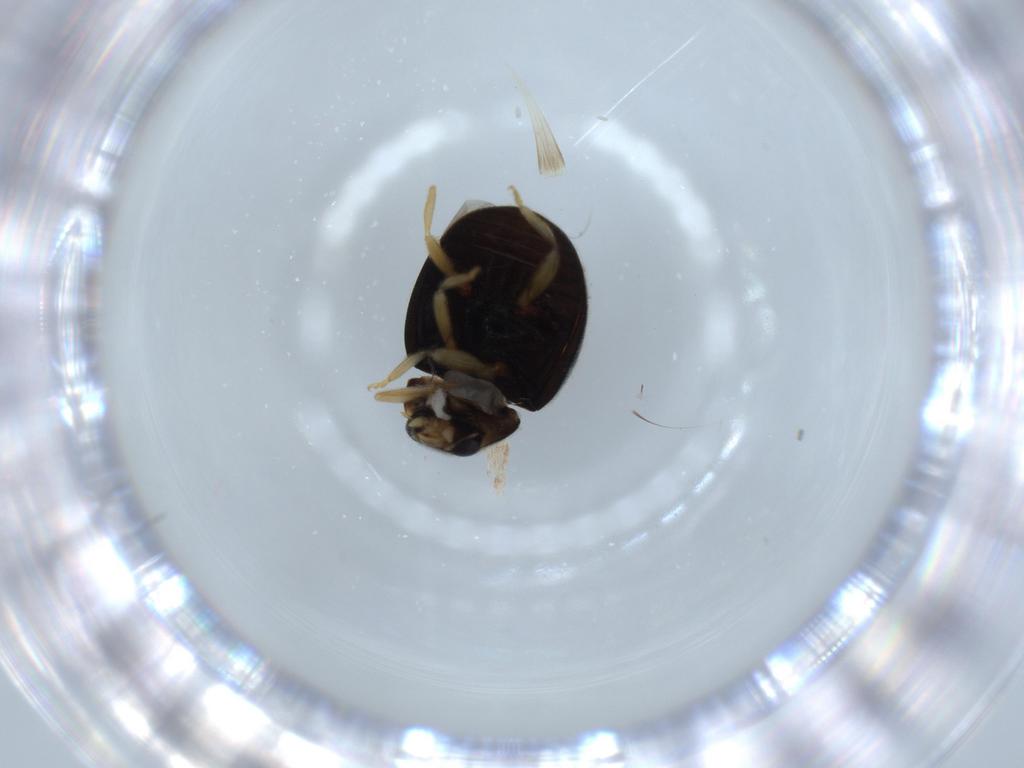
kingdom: Animalia
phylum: Arthropoda
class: Insecta
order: Coleoptera
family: Coccinellidae
